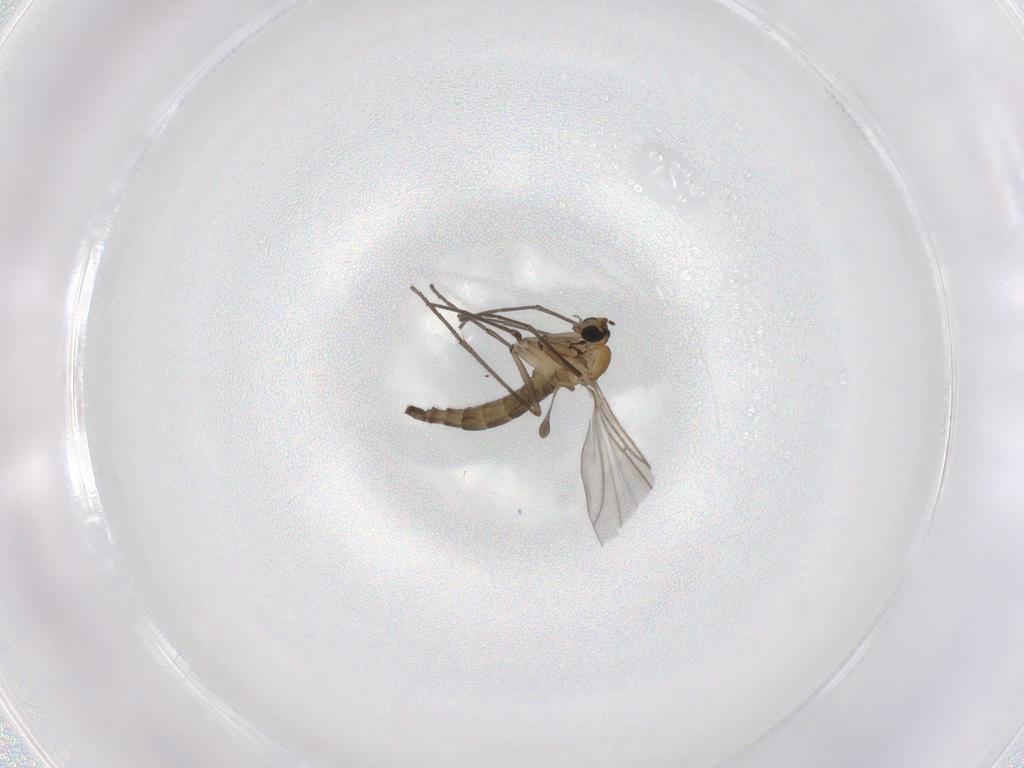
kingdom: Animalia
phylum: Arthropoda
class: Insecta
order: Diptera
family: Sciaridae
